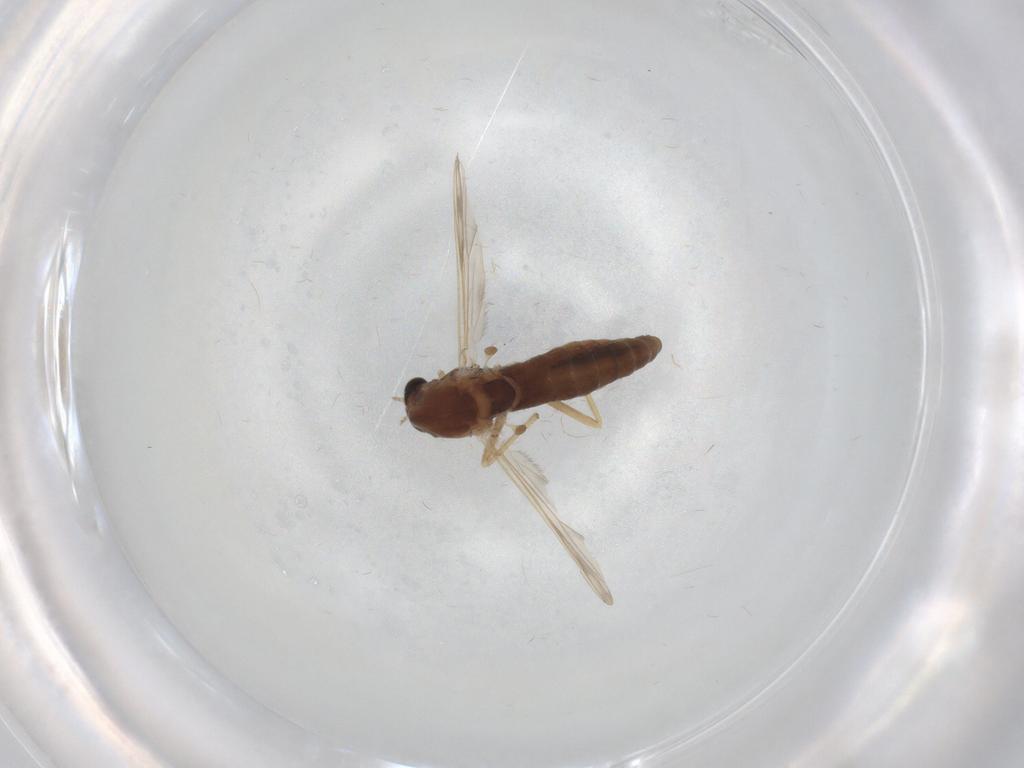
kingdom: Animalia
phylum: Arthropoda
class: Insecta
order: Diptera
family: Chironomidae
